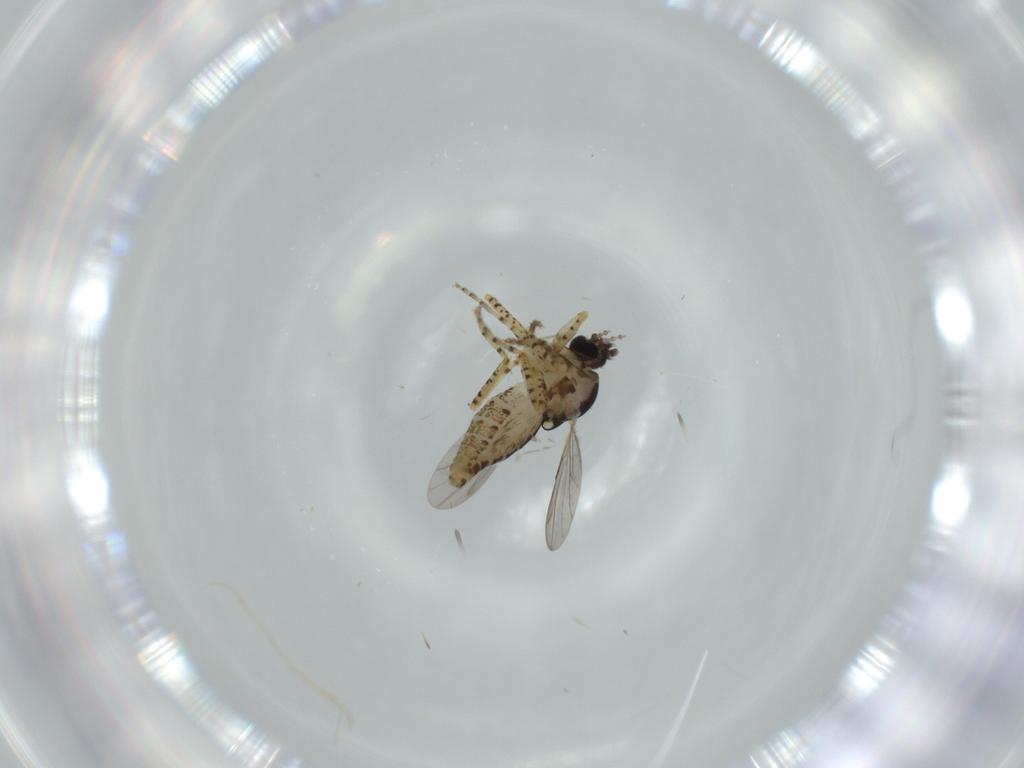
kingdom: Animalia
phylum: Arthropoda
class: Insecta
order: Diptera
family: Ceratopogonidae
